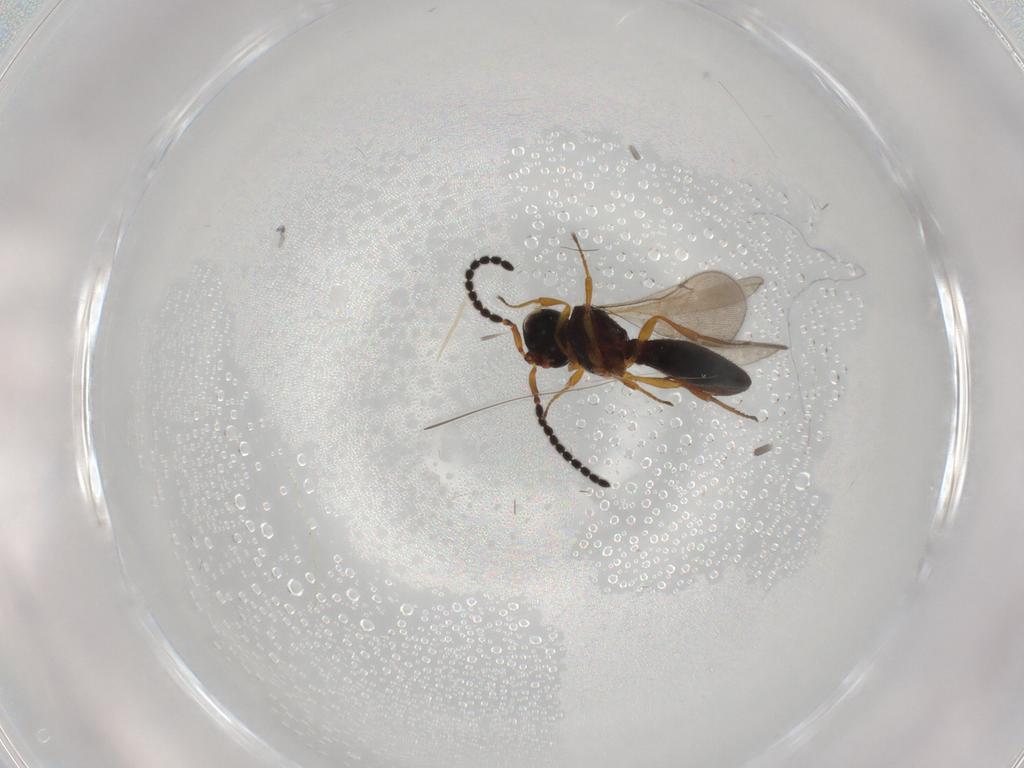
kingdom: Animalia
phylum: Arthropoda
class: Insecta
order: Hymenoptera
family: Scelionidae
